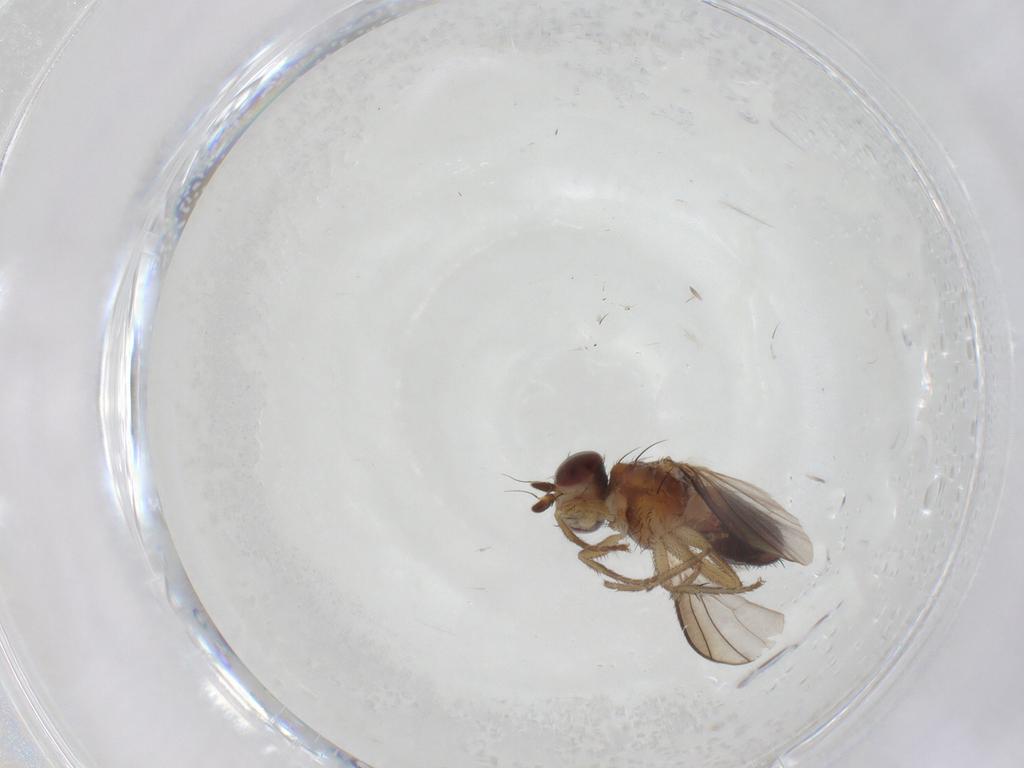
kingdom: Animalia
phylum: Arthropoda
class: Insecta
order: Diptera
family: Heleomyzidae
